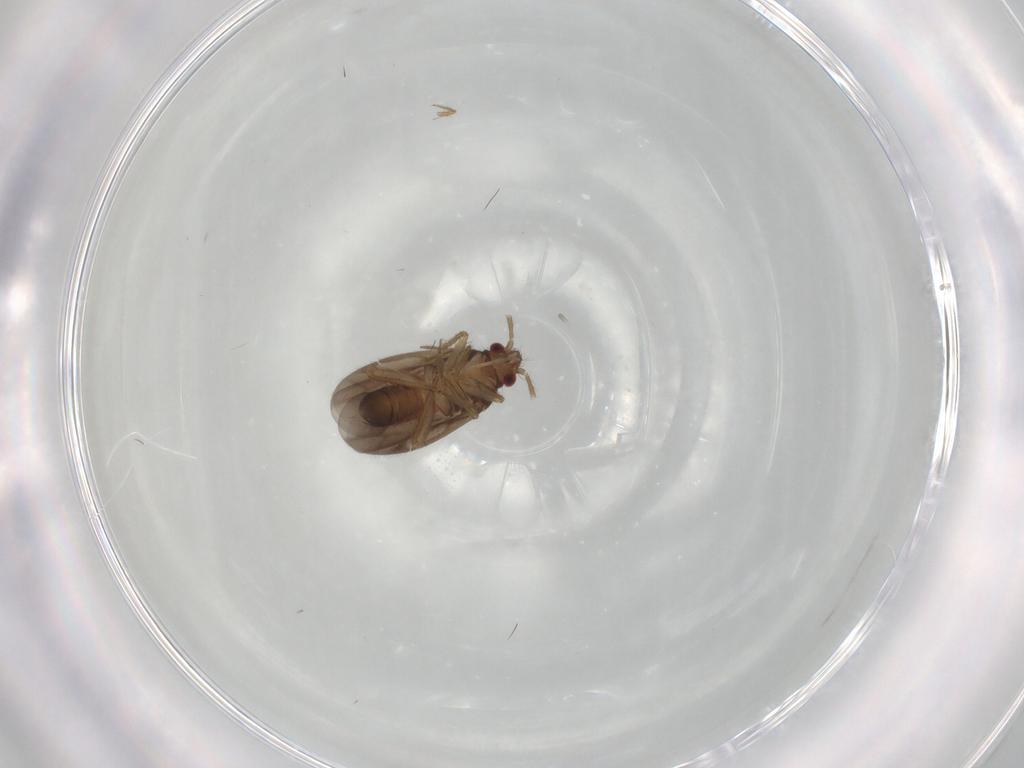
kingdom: Animalia
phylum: Arthropoda
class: Insecta
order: Hemiptera
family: Ceratocombidae
